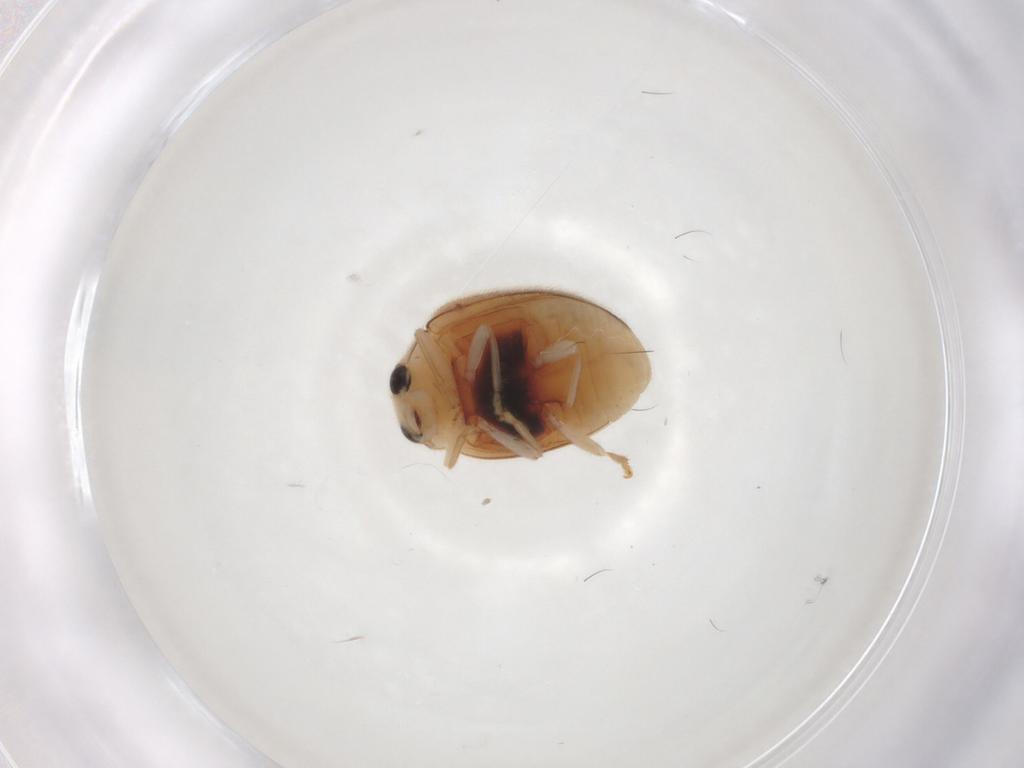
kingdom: Animalia
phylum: Arthropoda
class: Insecta
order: Coleoptera
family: Coccinellidae
